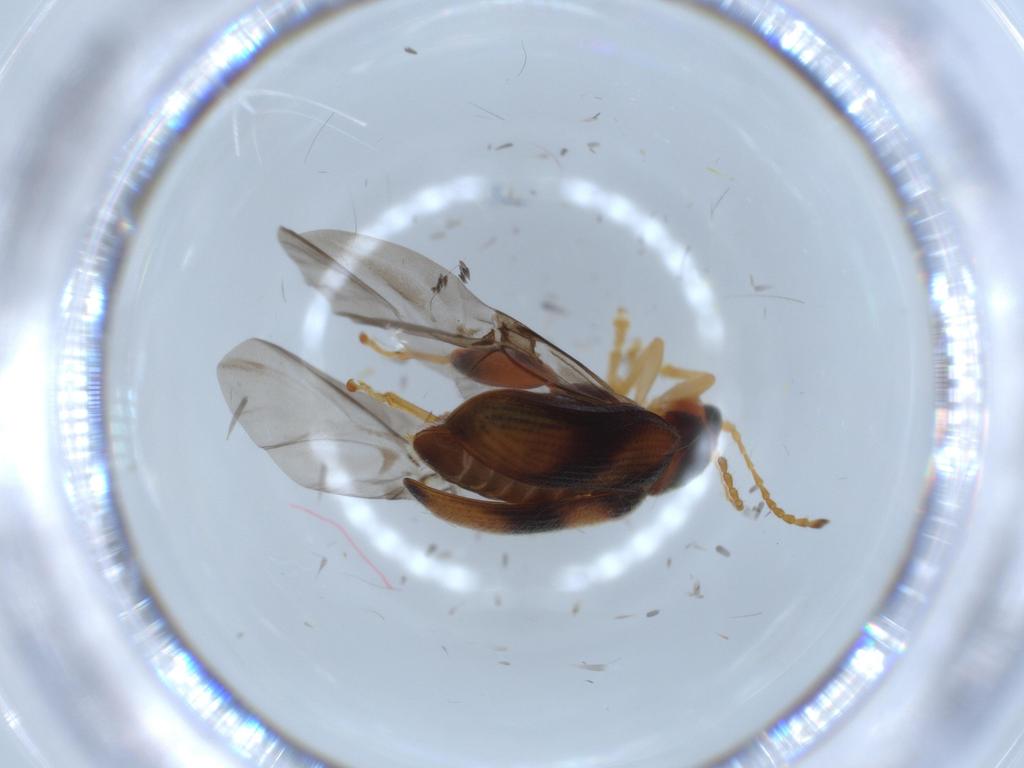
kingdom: Animalia
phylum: Arthropoda
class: Insecta
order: Coleoptera
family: Chrysomelidae
